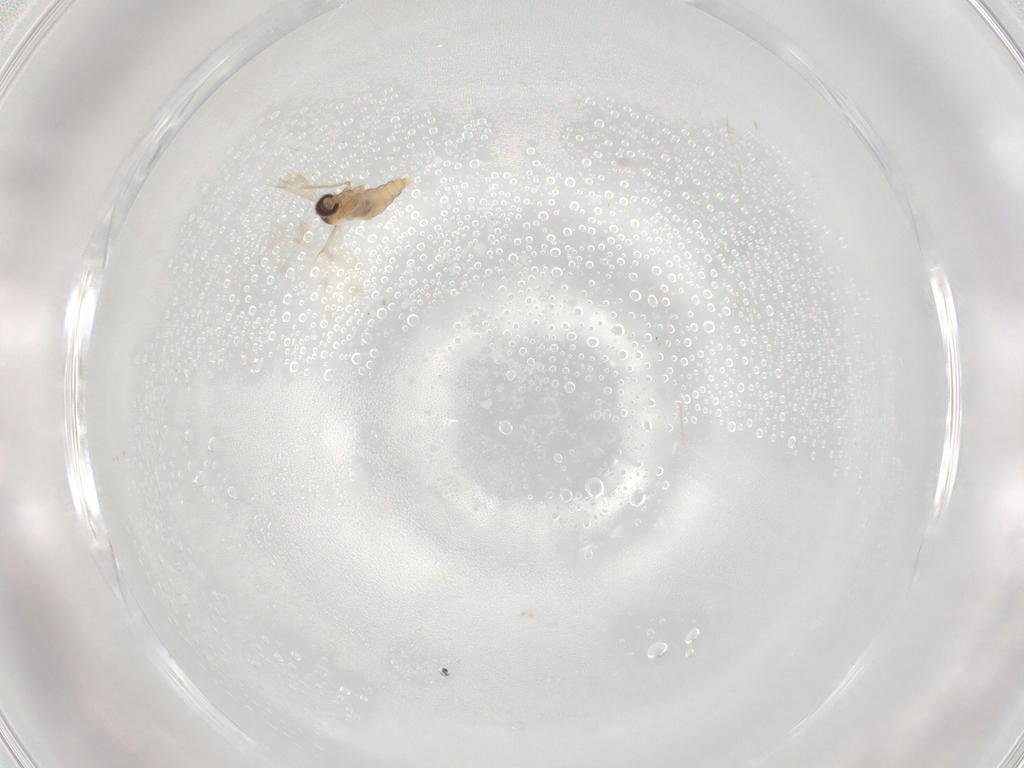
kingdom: Animalia
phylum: Arthropoda
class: Insecta
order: Diptera
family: Cecidomyiidae
